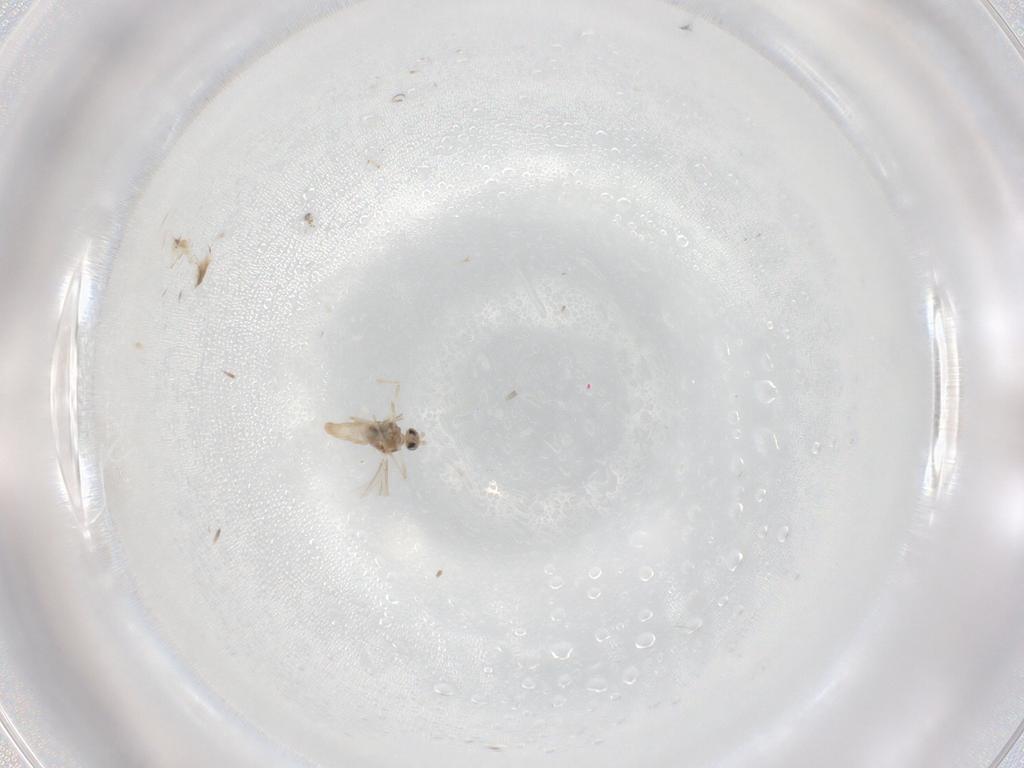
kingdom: Animalia
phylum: Arthropoda
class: Insecta
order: Diptera
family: Cecidomyiidae
